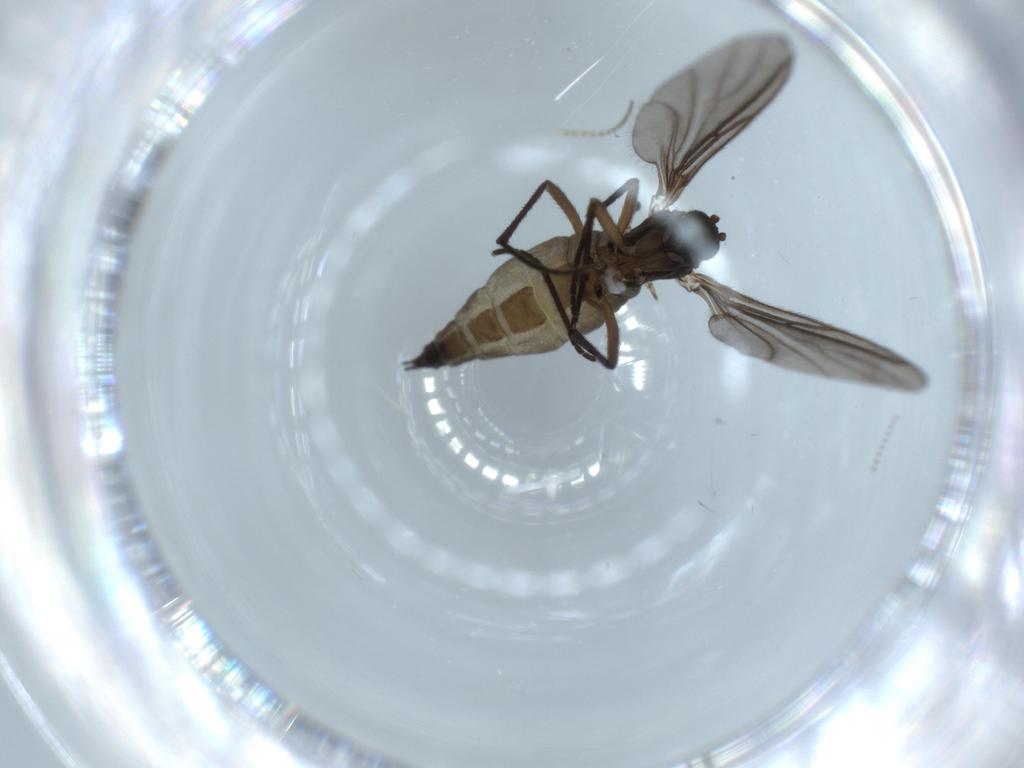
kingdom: Animalia
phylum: Arthropoda
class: Insecta
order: Diptera
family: Sciaridae
